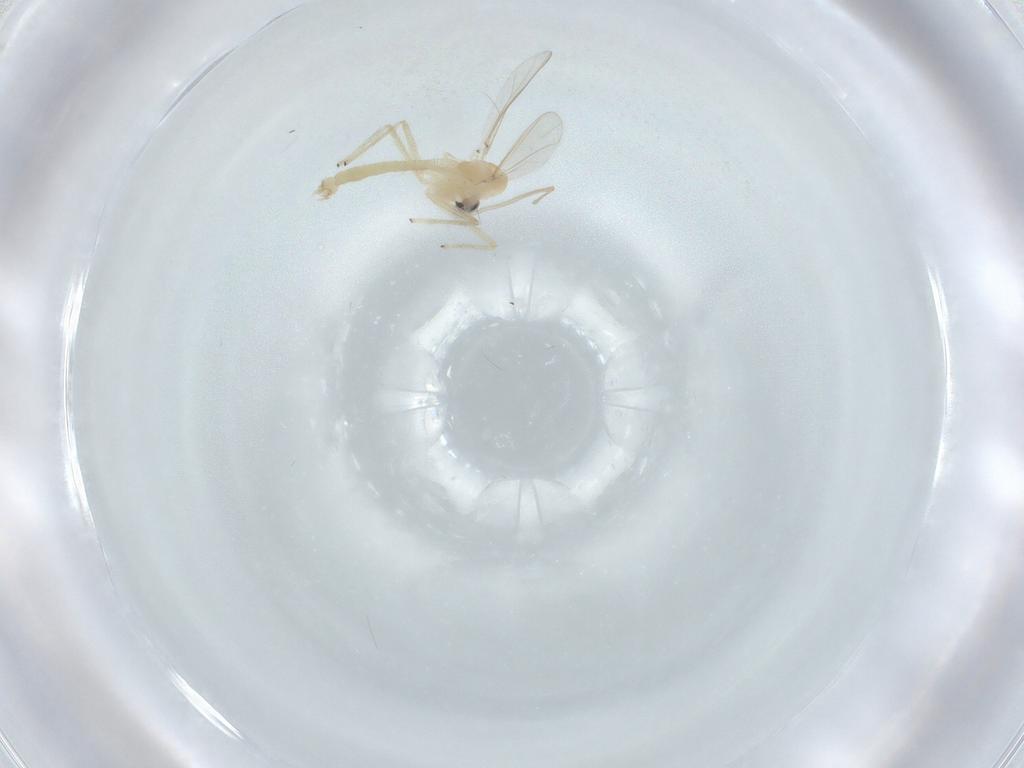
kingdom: Animalia
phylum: Arthropoda
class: Insecta
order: Diptera
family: Chironomidae
